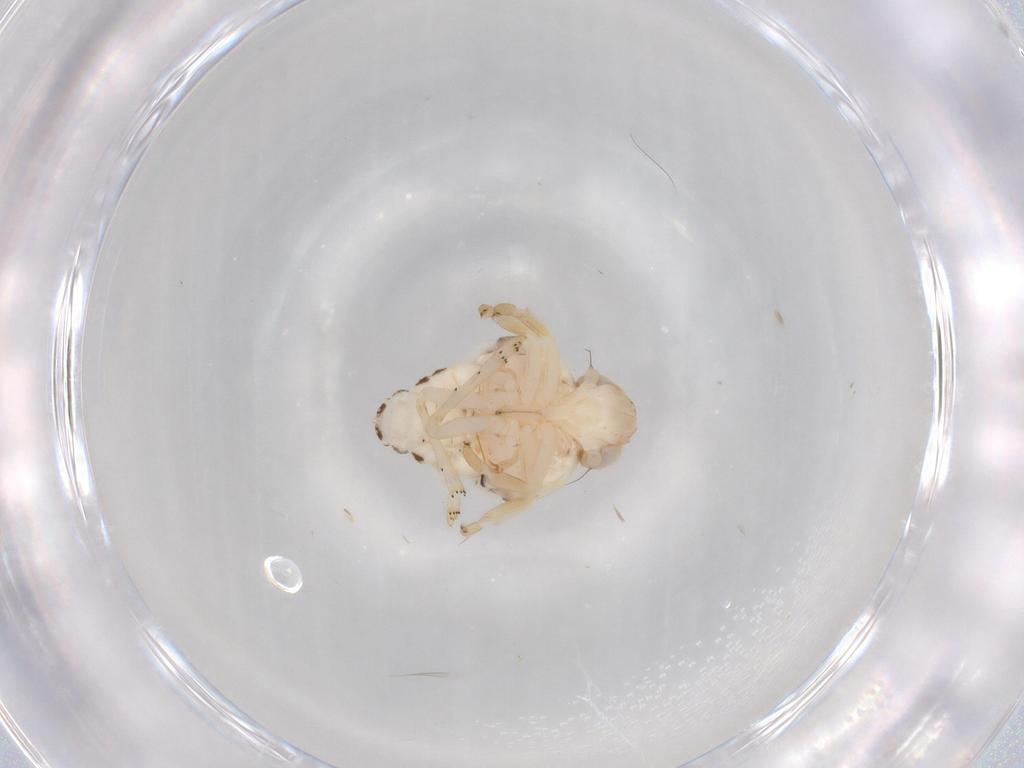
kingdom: Animalia
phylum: Arthropoda
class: Insecta
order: Hemiptera
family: Nogodinidae
